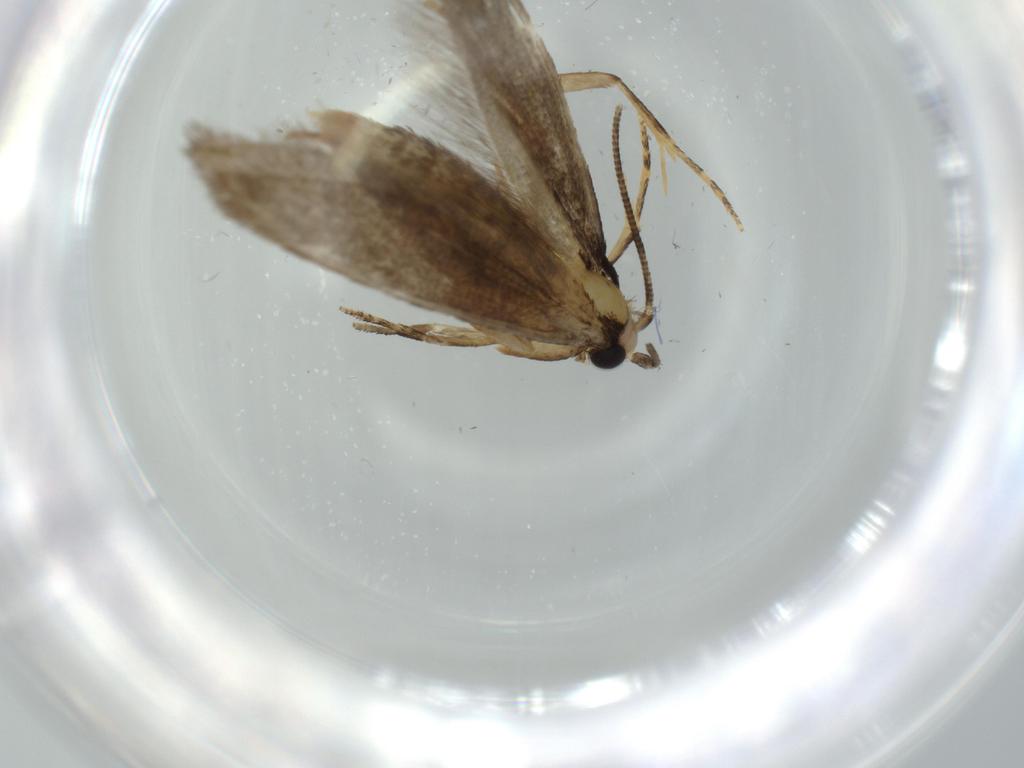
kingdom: Animalia
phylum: Arthropoda
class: Insecta
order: Lepidoptera
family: Tineidae
